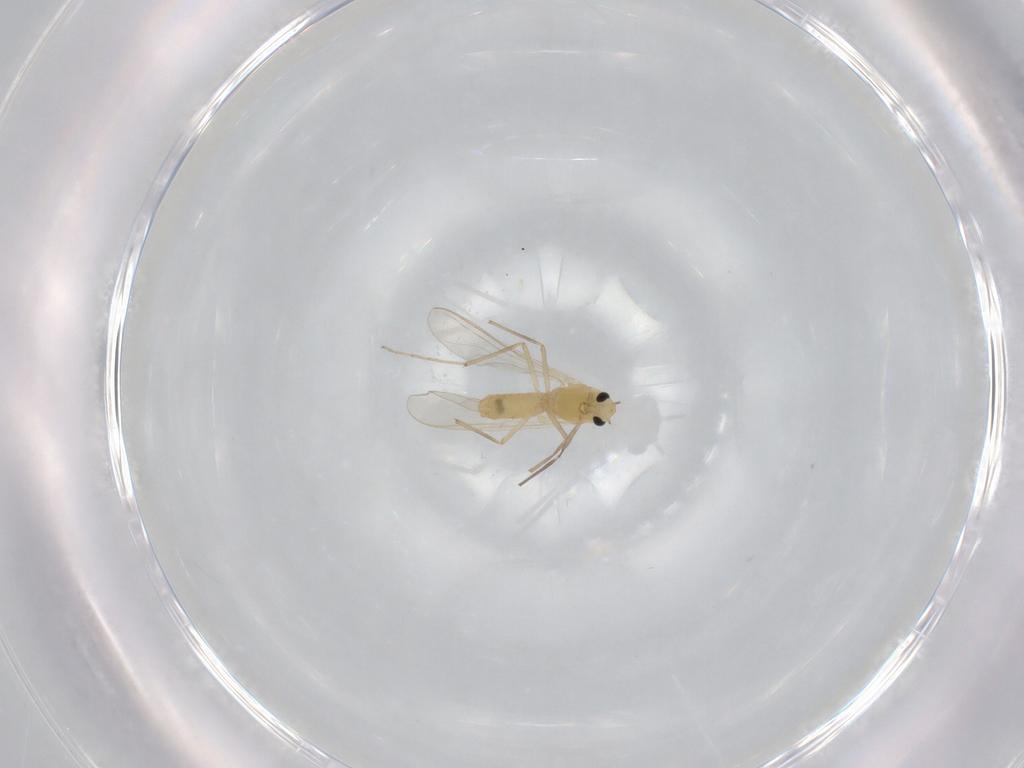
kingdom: Animalia
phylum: Arthropoda
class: Insecta
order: Diptera
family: Chironomidae
